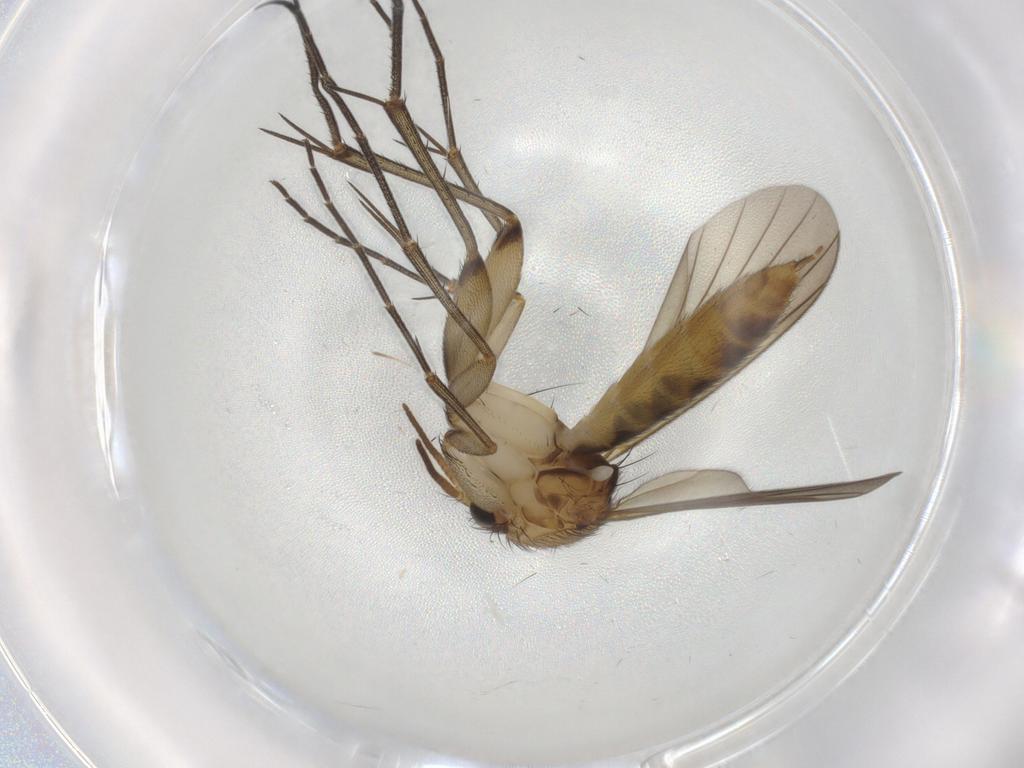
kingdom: Animalia
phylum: Arthropoda
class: Insecta
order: Diptera
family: Mycetophilidae
